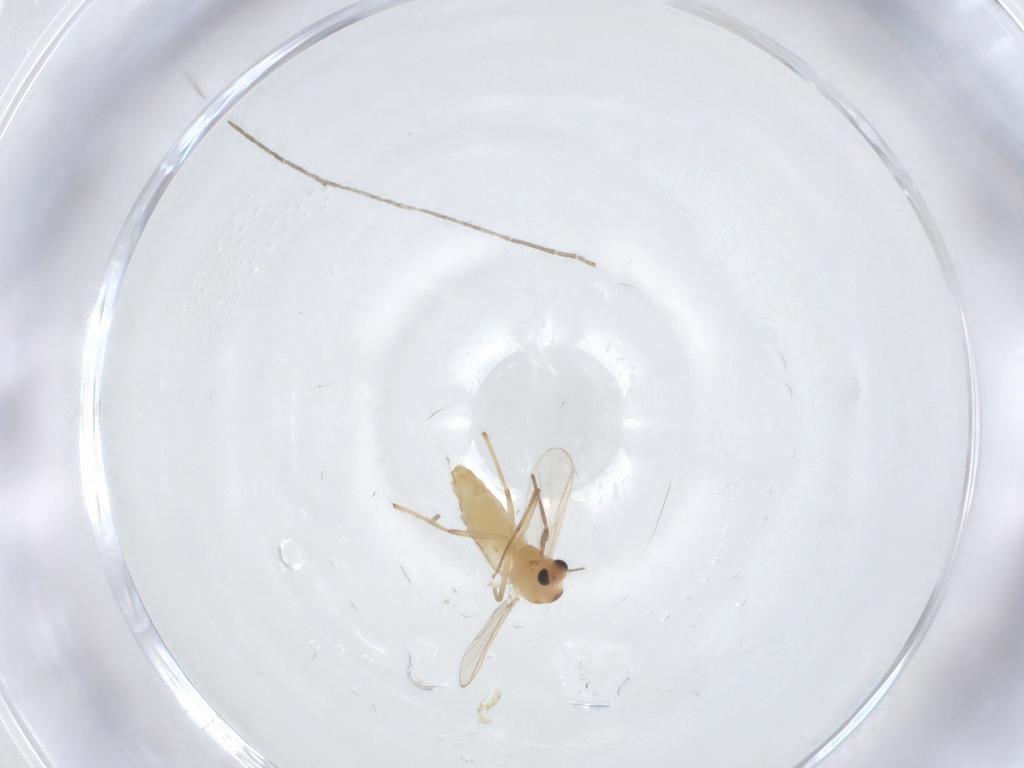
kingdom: Animalia
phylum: Arthropoda
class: Insecta
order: Diptera
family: Chironomidae
